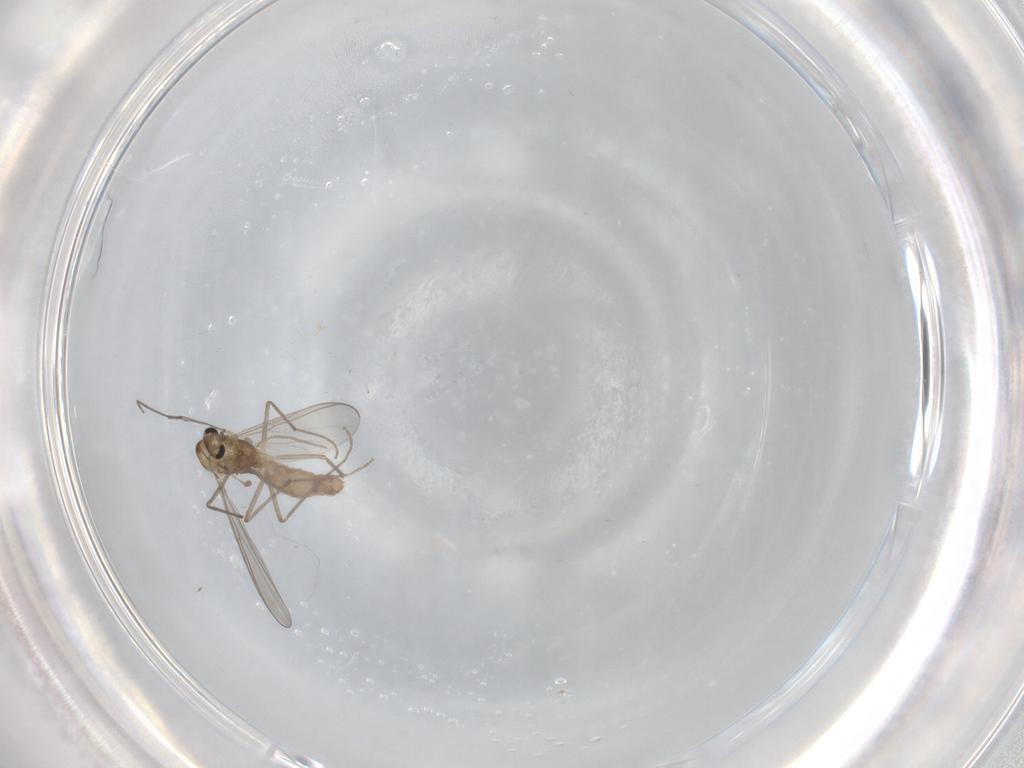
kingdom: Animalia
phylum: Arthropoda
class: Insecta
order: Diptera
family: Chironomidae
